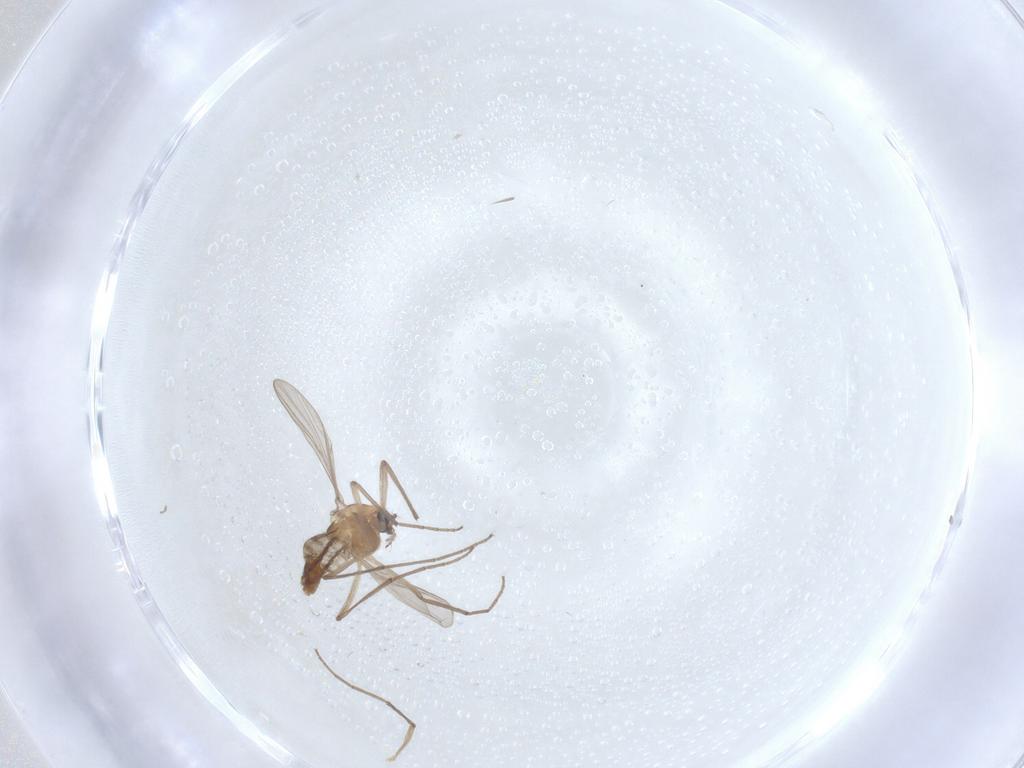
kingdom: Animalia
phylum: Arthropoda
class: Insecta
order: Diptera
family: Chironomidae
